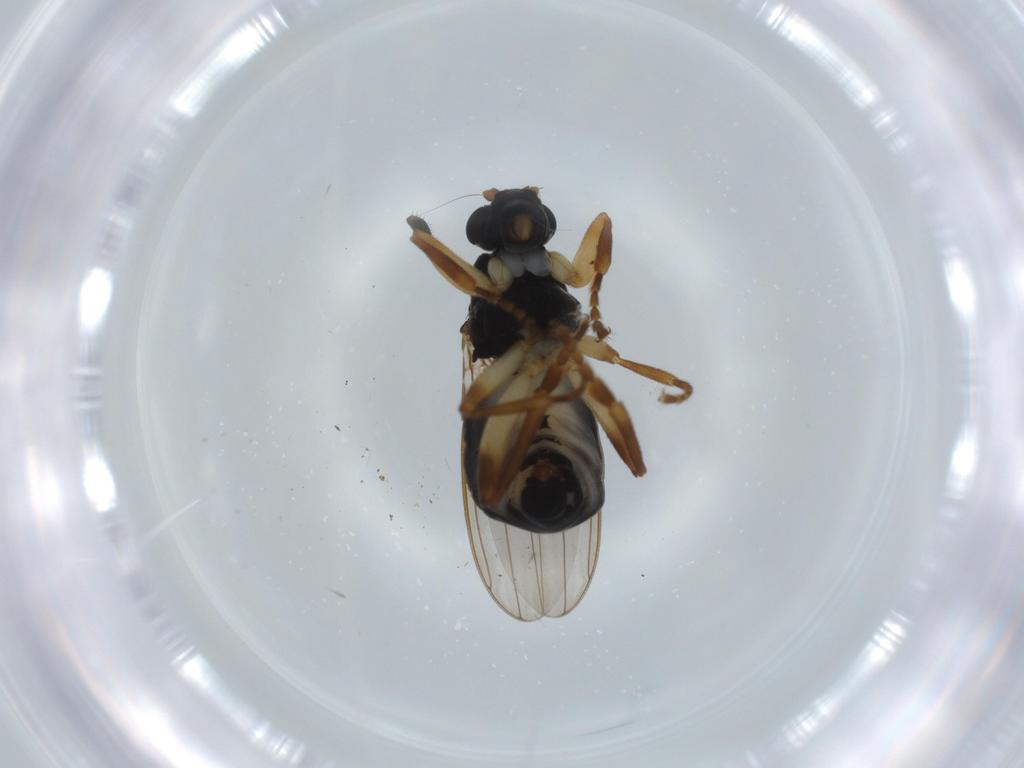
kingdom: Animalia
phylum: Arthropoda
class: Insecta
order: Diptera
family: Sphaeroceridae
